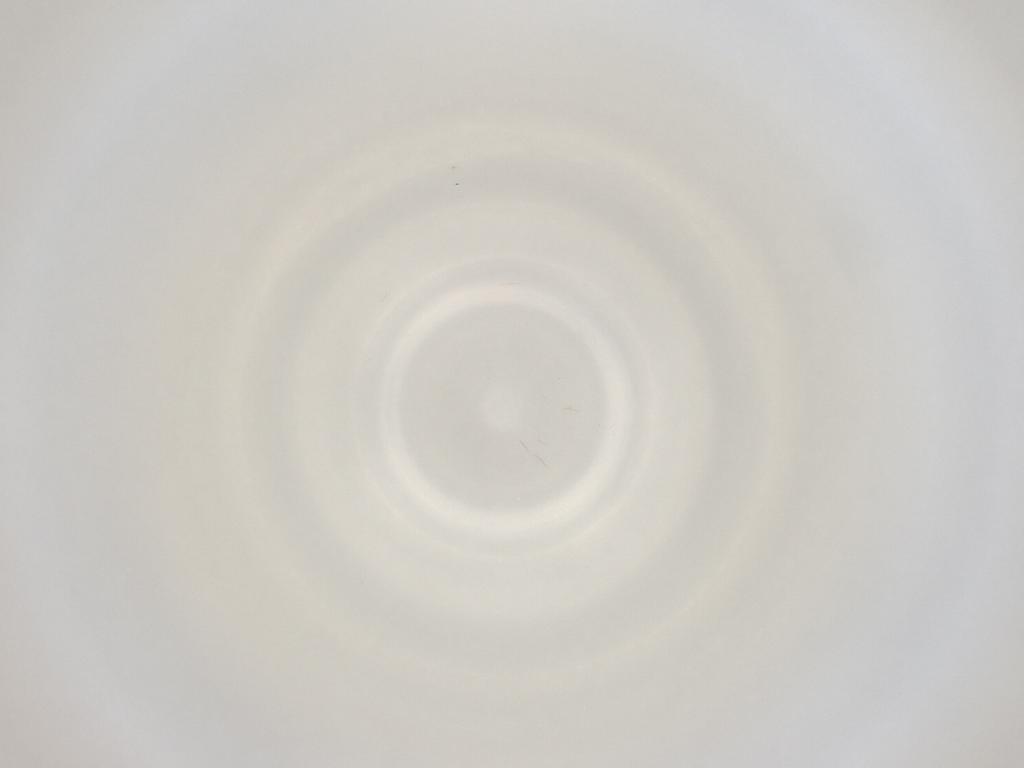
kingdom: Animalia
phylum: Arthropoda
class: Insecta
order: Diptera
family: Cecidomyiidae
